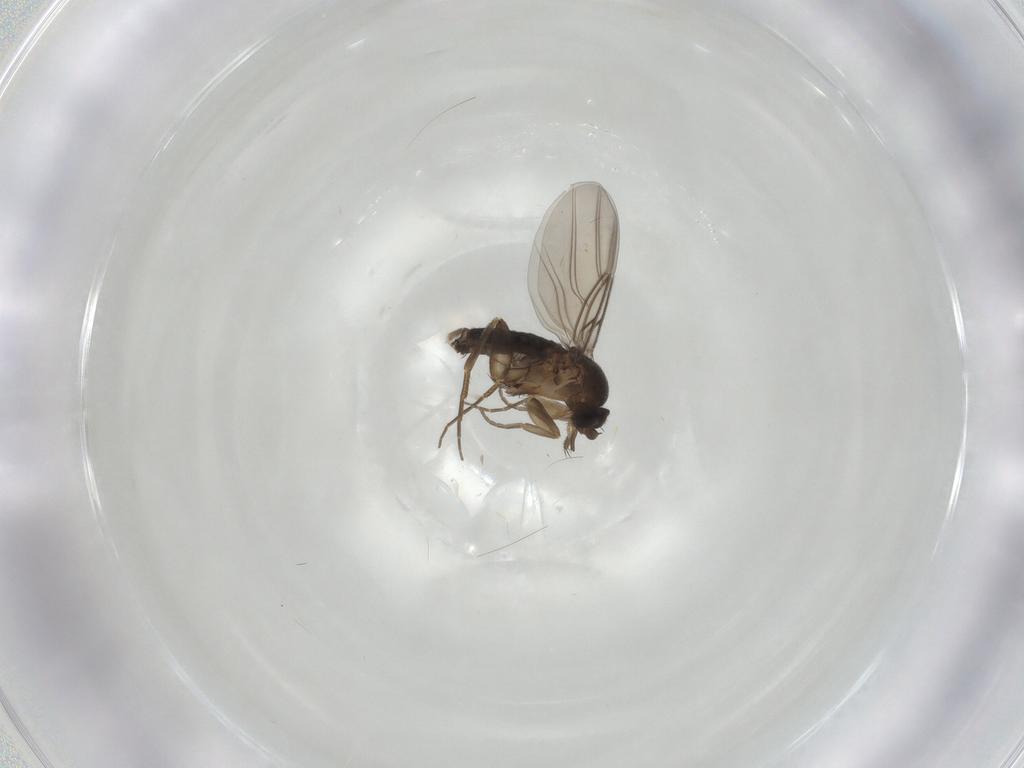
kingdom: Animalia
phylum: Arthropoda
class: Insecta
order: Diptera
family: Phoridae
